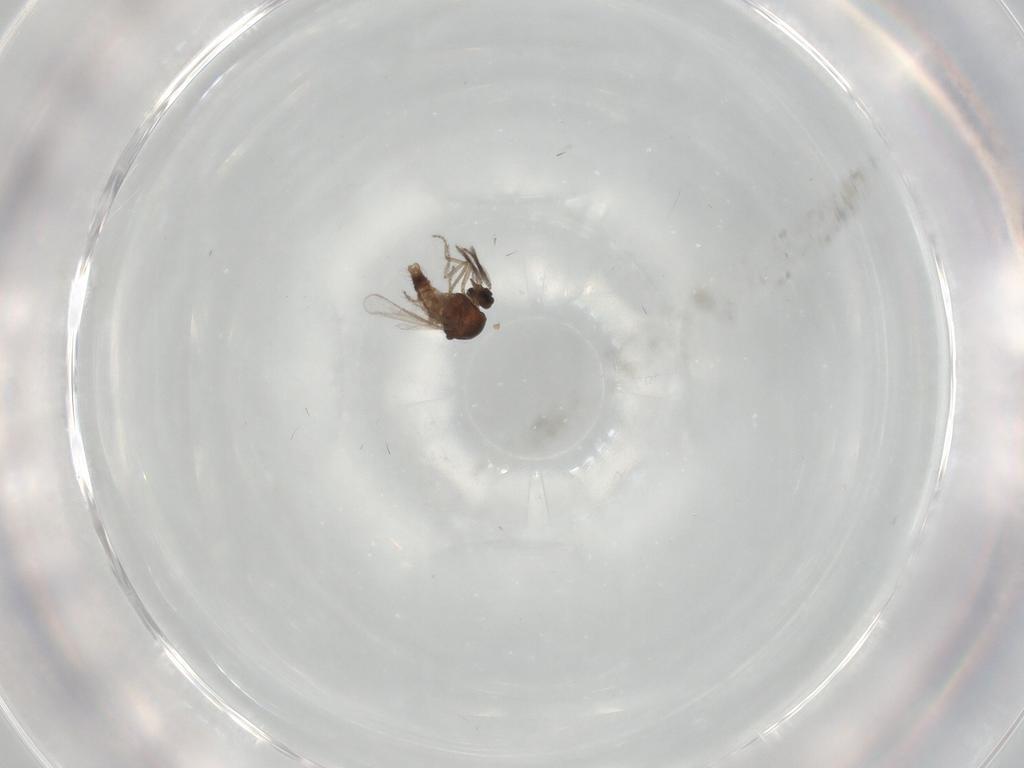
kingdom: Animalia
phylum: Arthropoda
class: Insecta
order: Diptera
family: Ceratopogonidae
